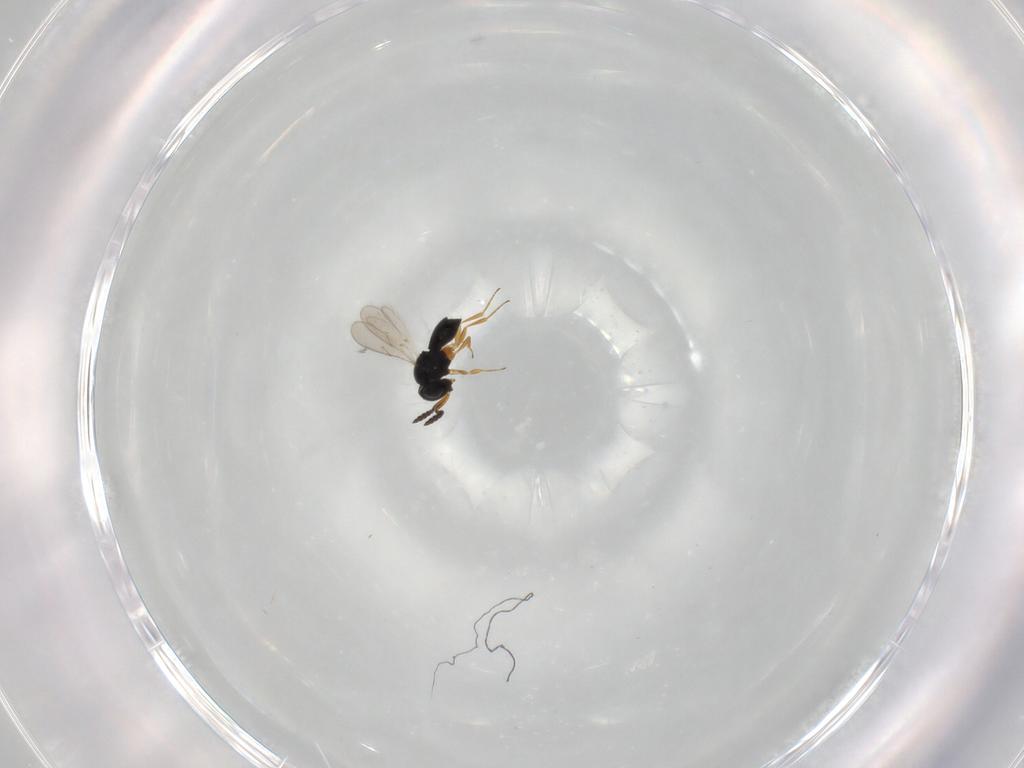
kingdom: Animalia
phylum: Arthropoda
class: Insecta
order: Hymenoptera
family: Scelionidae
